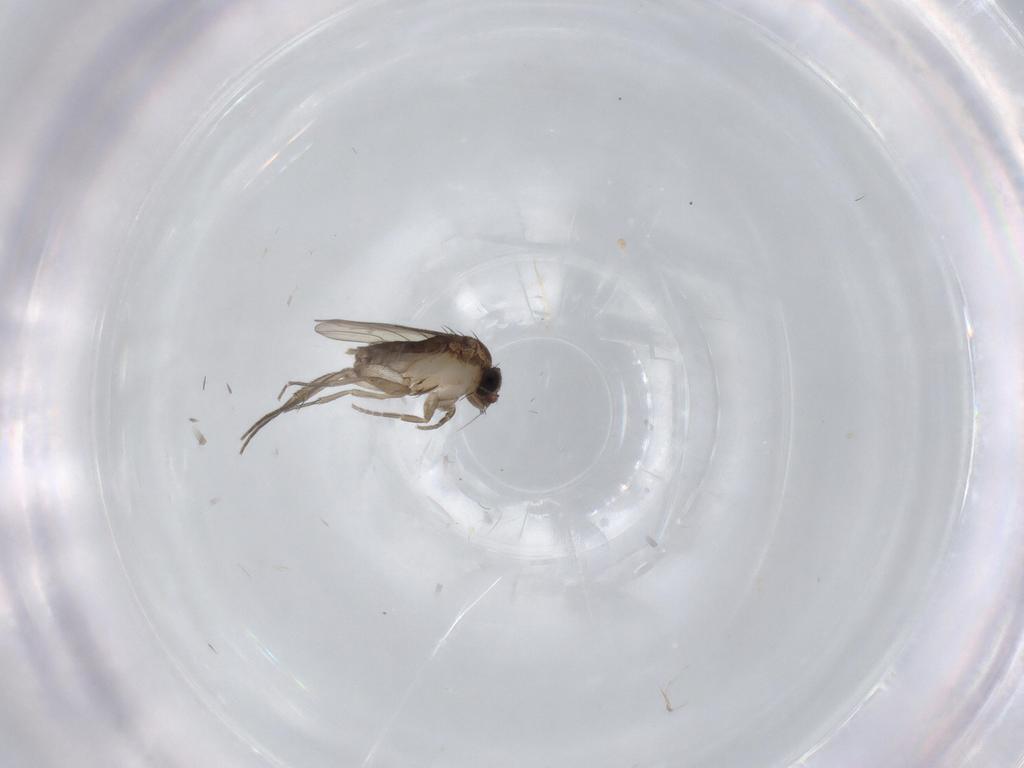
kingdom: Animalia
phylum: Arthropoda
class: Insecta
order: Diptera
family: Phoridae
